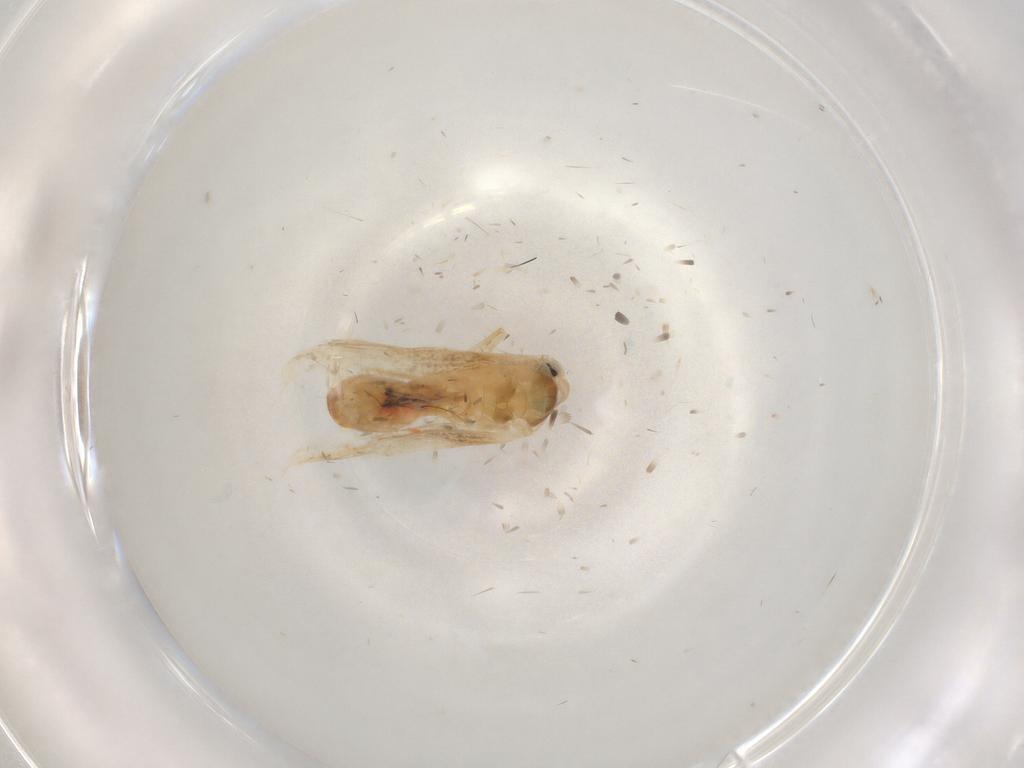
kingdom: Animalia
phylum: Arthropoda
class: Insecta
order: Lepidoptera
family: Noctuidae
